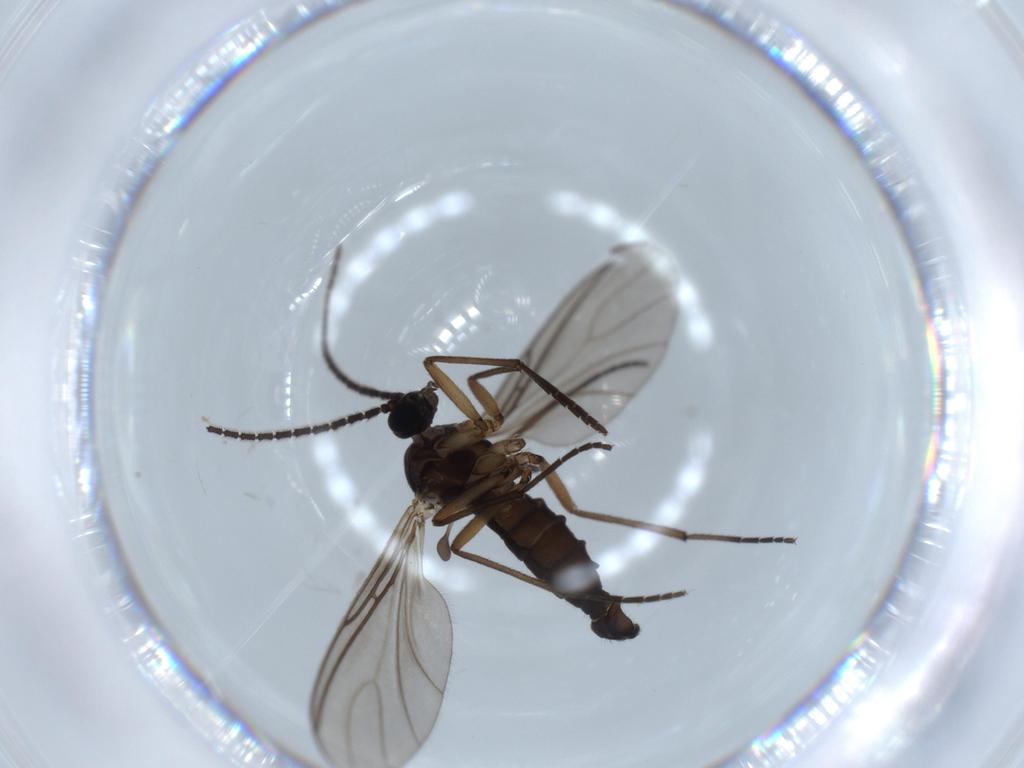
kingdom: Animalia
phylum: Arthropoda
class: Insecta
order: Diptera
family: Sciaridae
